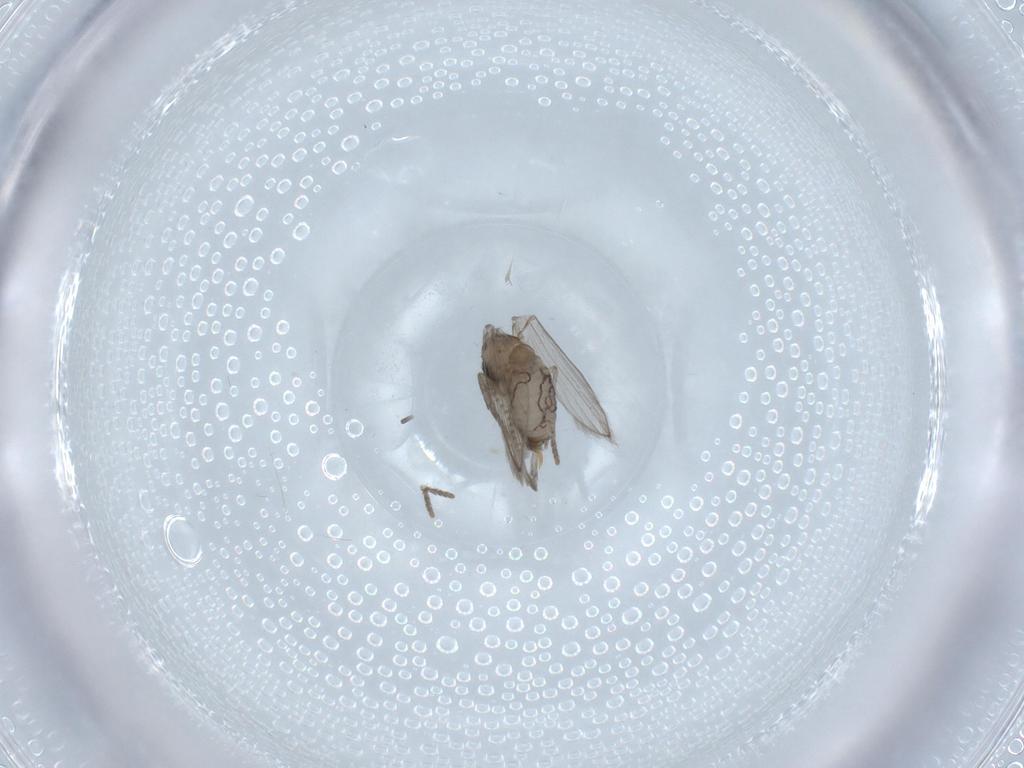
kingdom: Animalia
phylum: Arthropoda
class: Insecta
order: Diptera
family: Psychodidae
